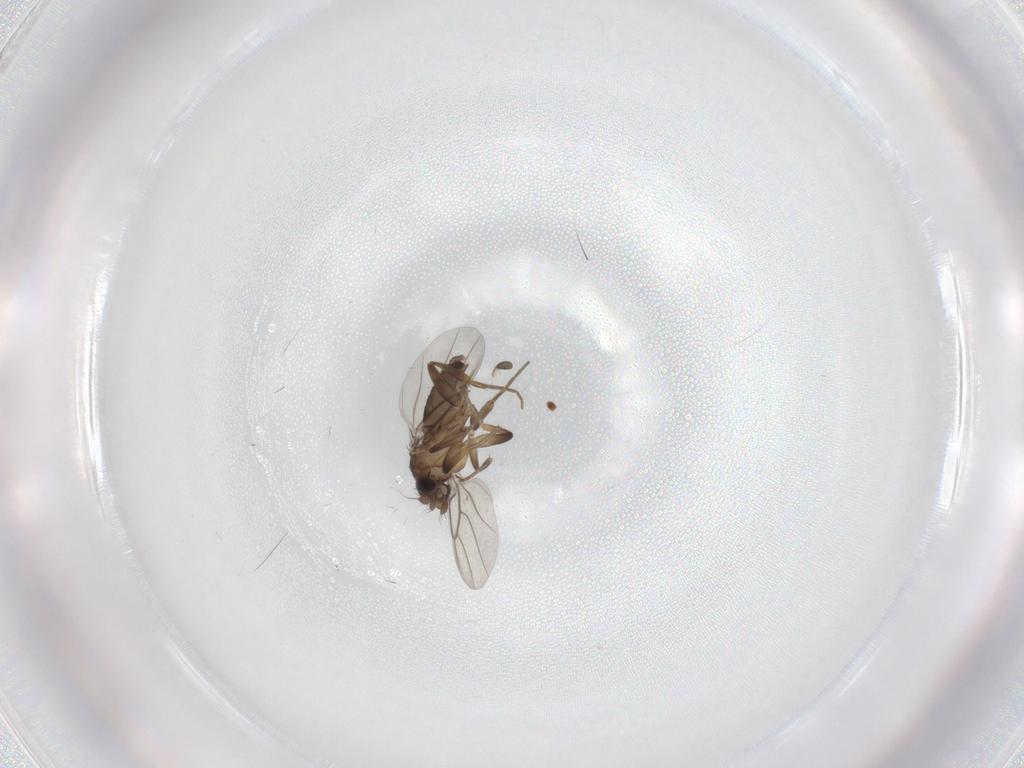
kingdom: Animalia
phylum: Arthropoda
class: Insecta
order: Diptera
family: Phoridae
